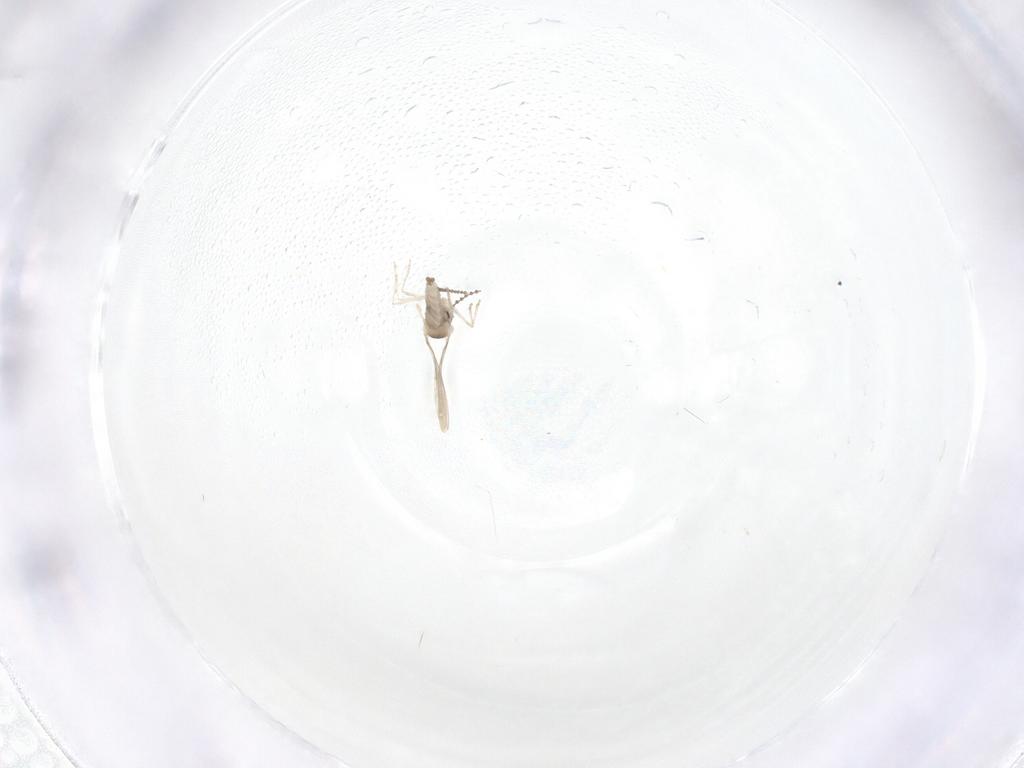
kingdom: Animalia
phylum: Arthropoda
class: Insecta
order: Diptera
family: Cecidomyiidae
